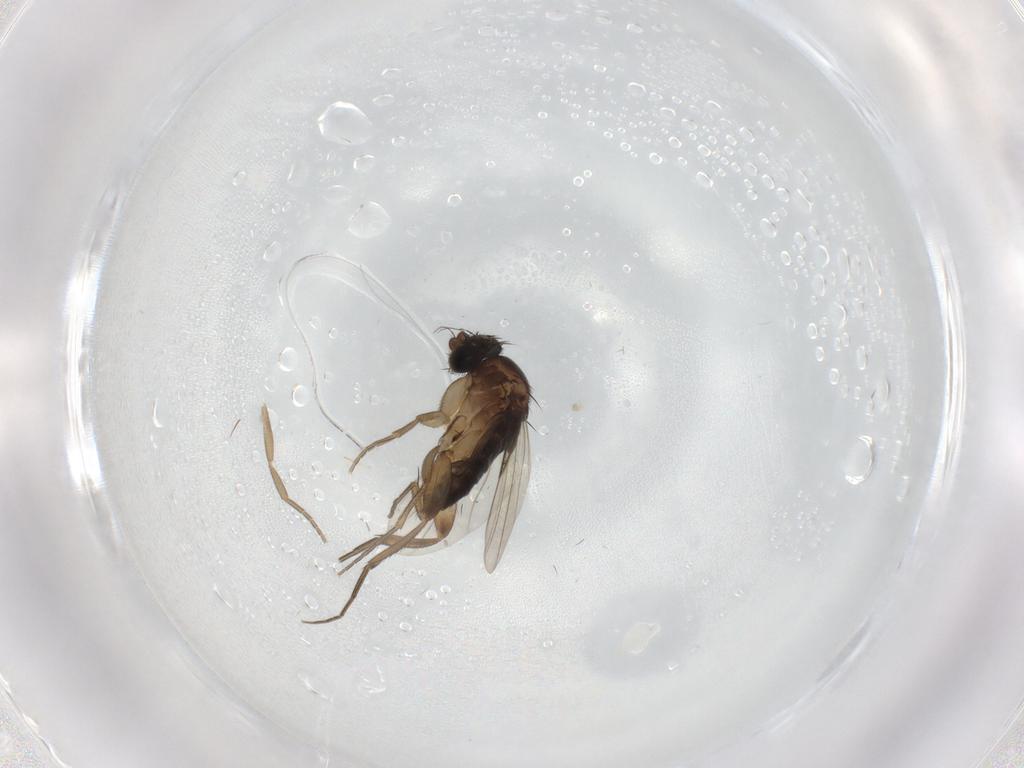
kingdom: Animalia
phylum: Arthropoda
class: Insecta
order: Diptera
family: Phoridae
